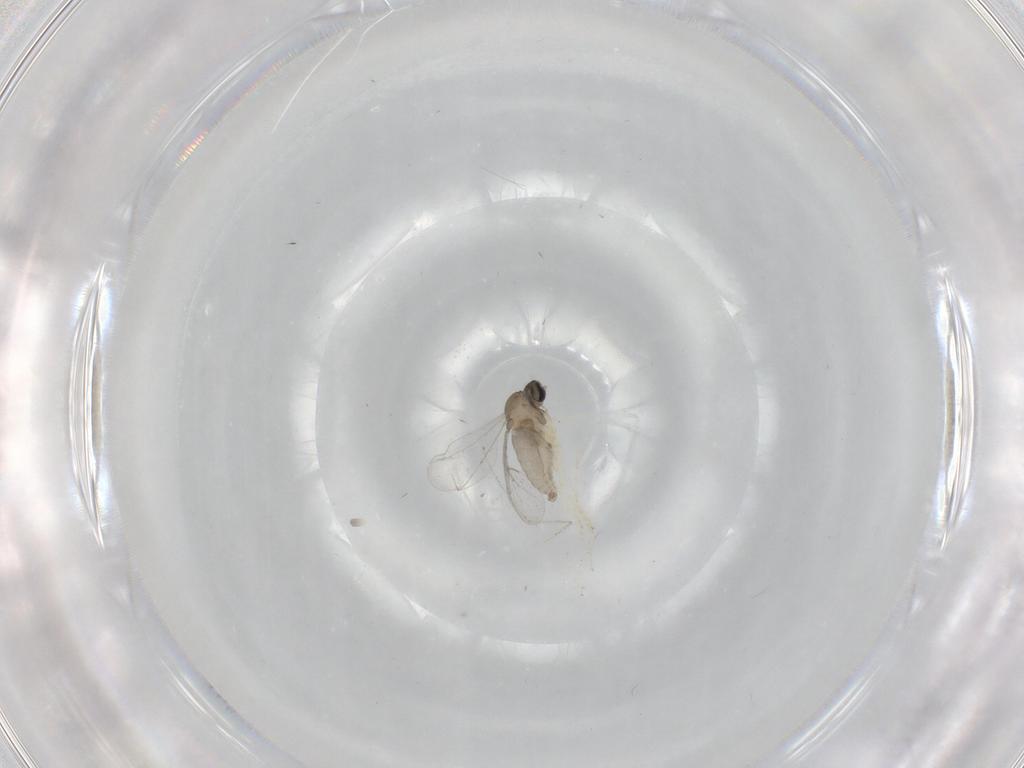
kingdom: Animalia
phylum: Arthropoda
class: Insecta
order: Diptera
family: Cecidomyiidae
